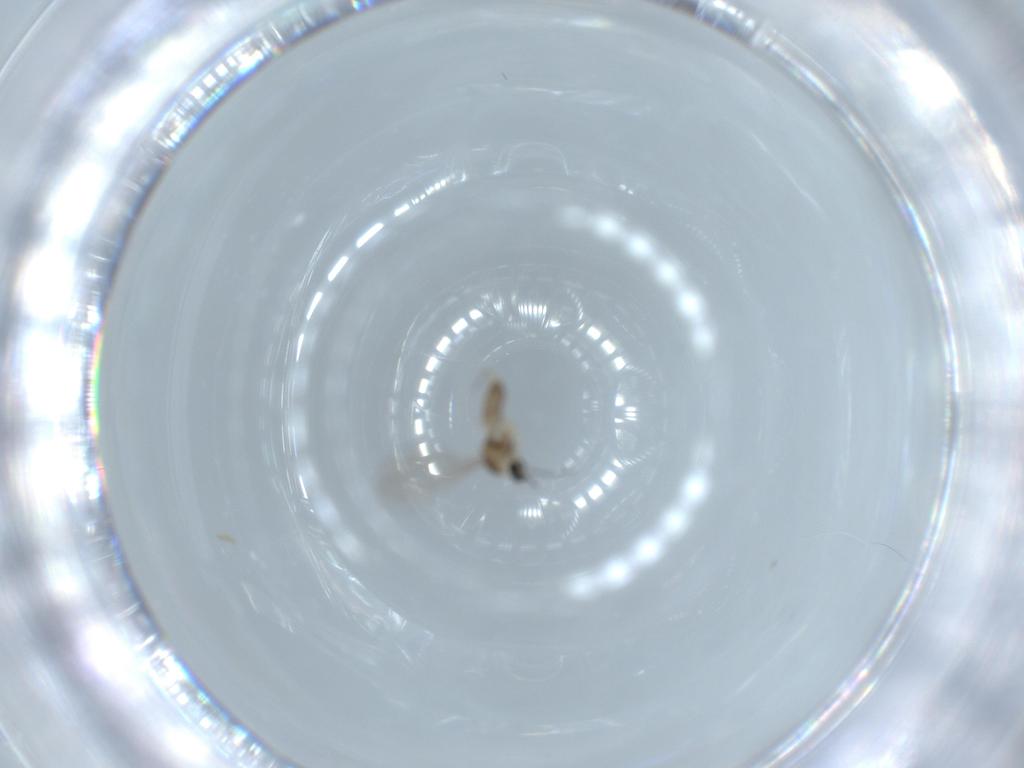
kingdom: Animalia
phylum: Arthropoda
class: Insecta
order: Diptera
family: Cecidomyiidae
